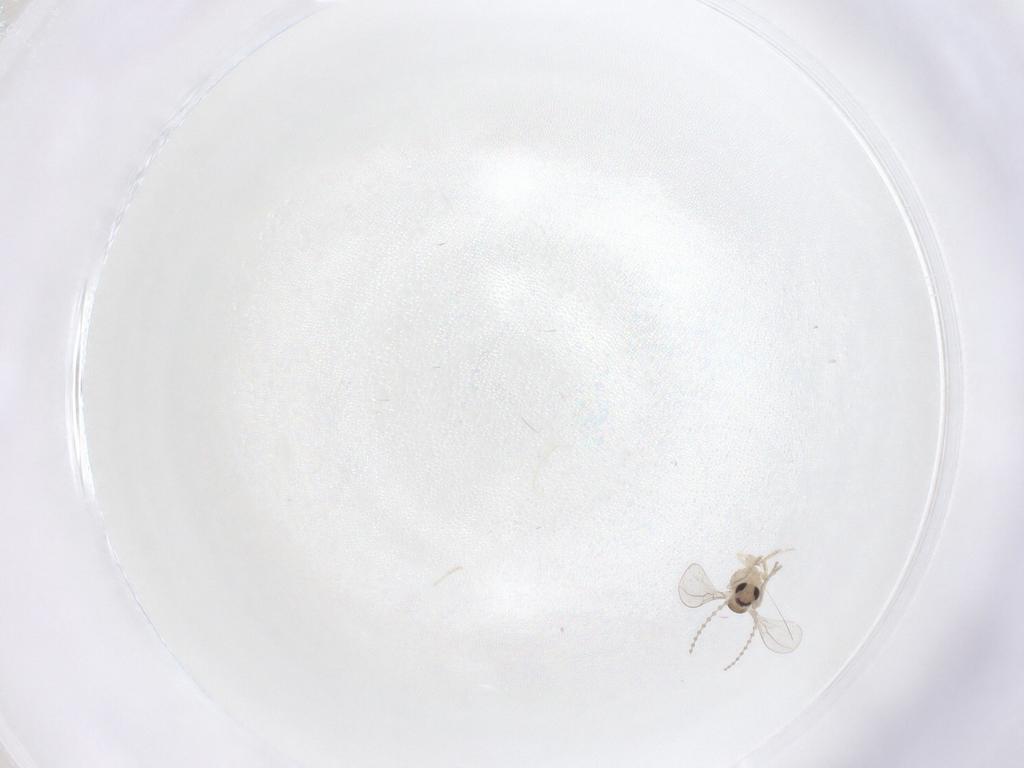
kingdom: Animalia
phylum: Arthropoda
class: Insecta
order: Diptera
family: Cecidomyiidae
